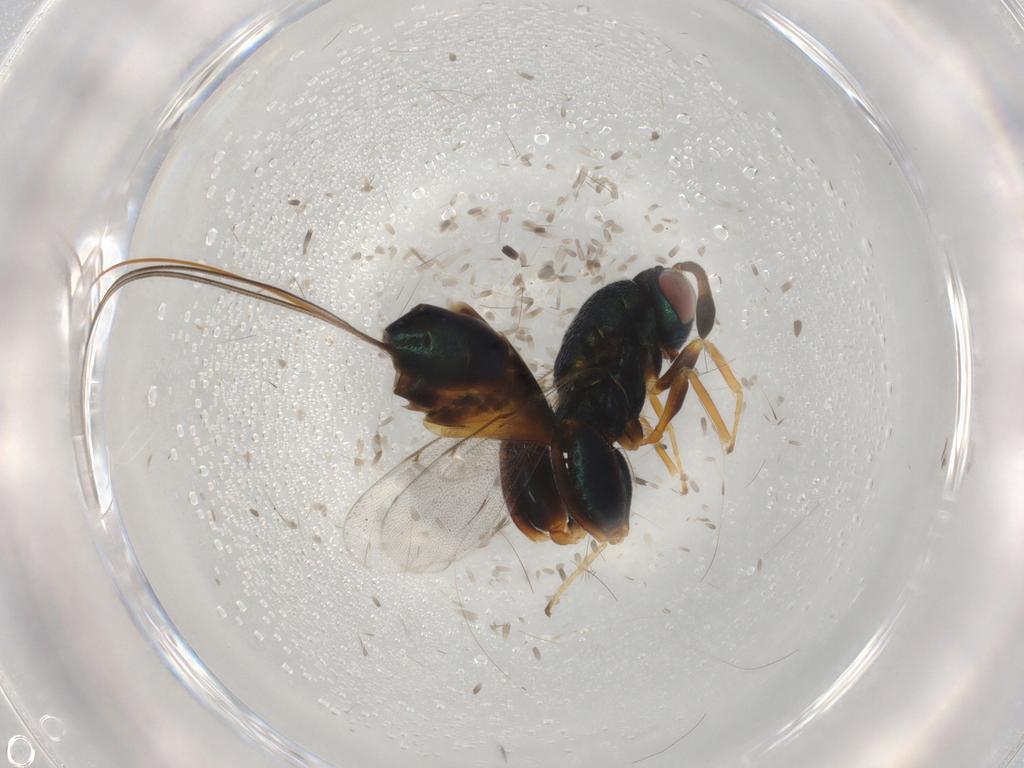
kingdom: Animalia
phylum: Arthropoda
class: Insecta
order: Hymenoptera
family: Torymidae
